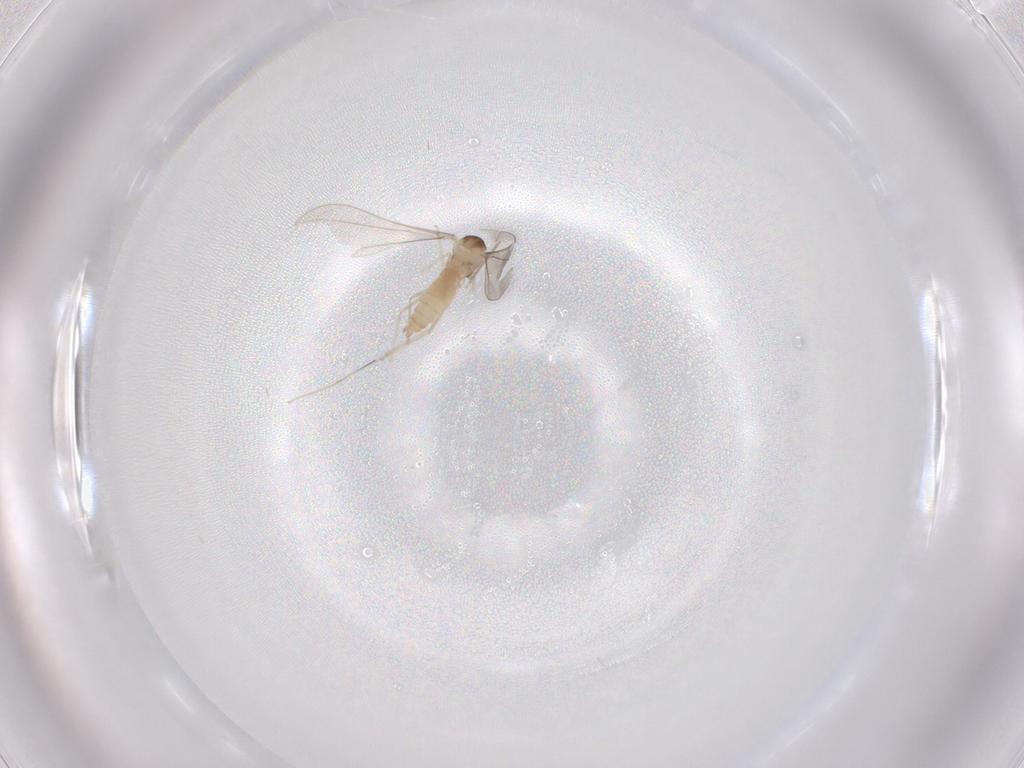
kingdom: Animalia
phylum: Arthropoda
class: Insecta
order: Diptera
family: Cecidomyiidae
